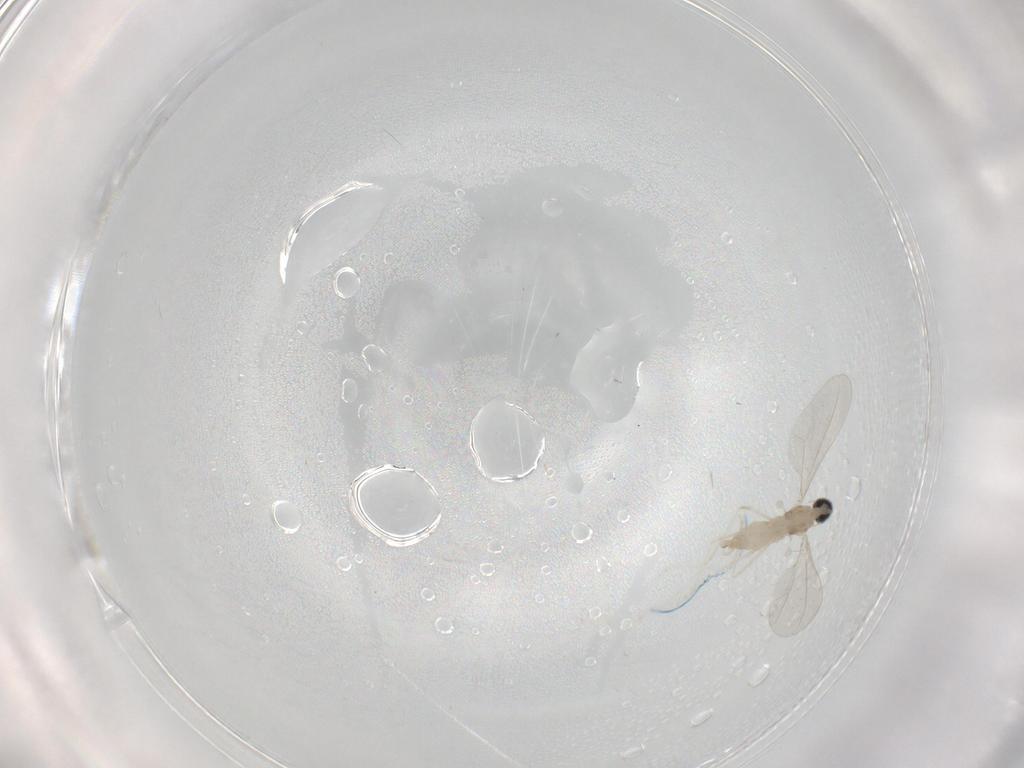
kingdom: Animalia
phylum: Arthropoda
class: Insecta
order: Diptera
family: Cecidomyiidae
